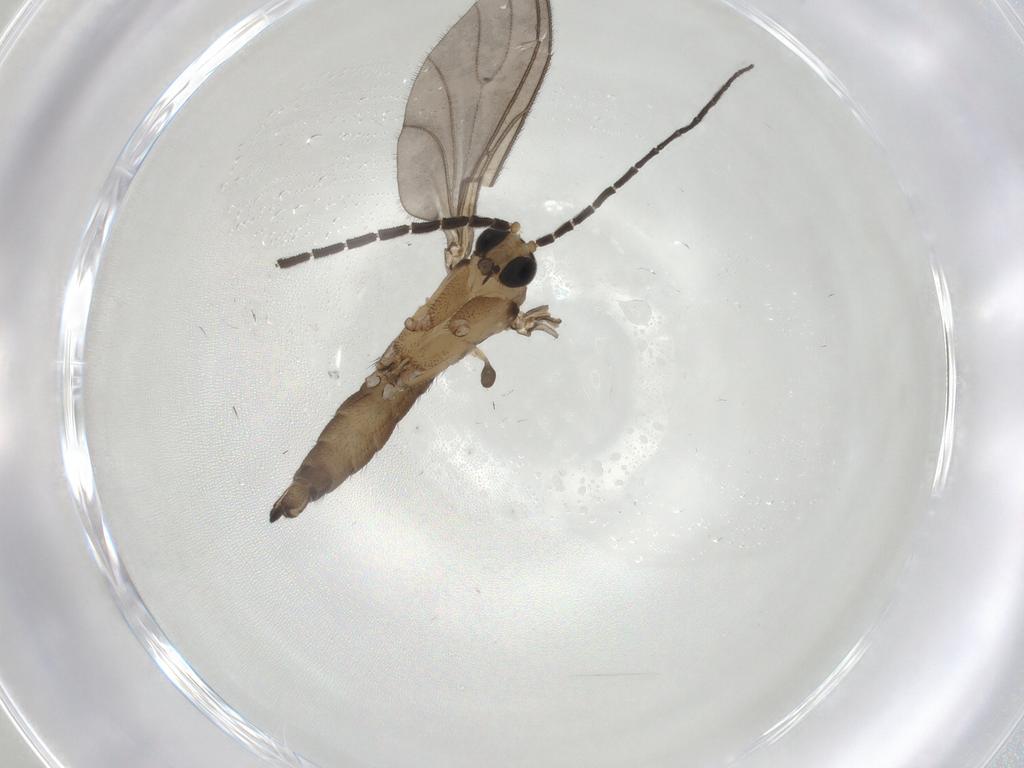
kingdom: Animalia
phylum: Arthropoda
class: Insecta
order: Diptera
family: Sciaridae
